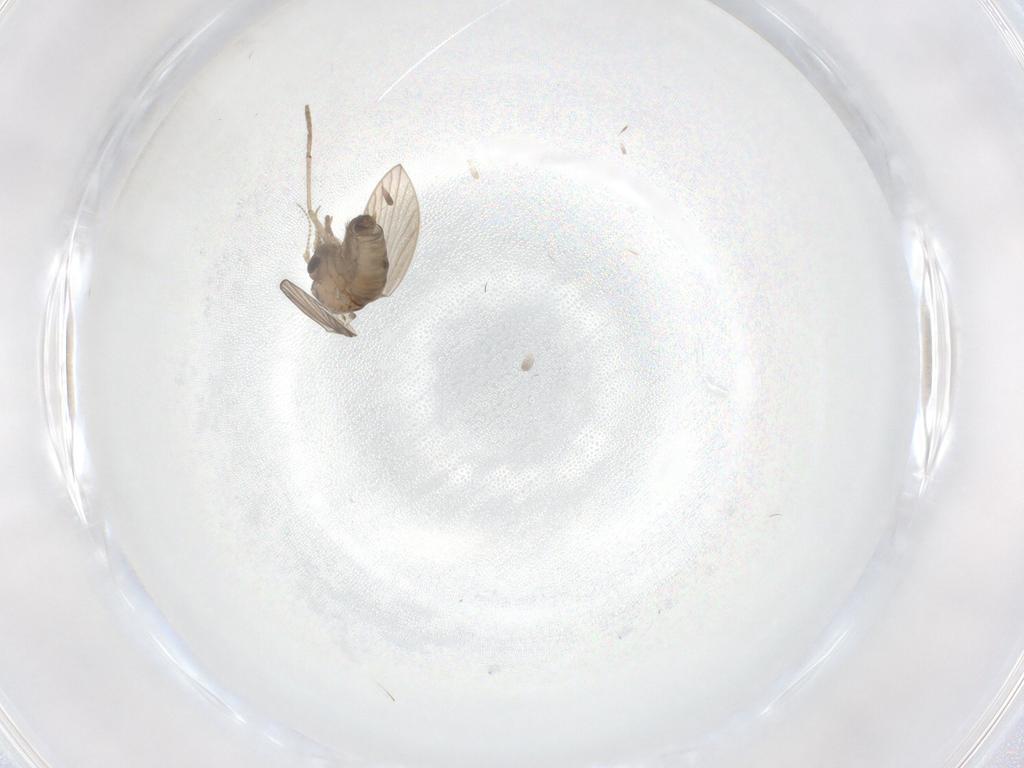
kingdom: Animalia
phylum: Arthropoda
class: Insecta
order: Diptera
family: Psychodidae
